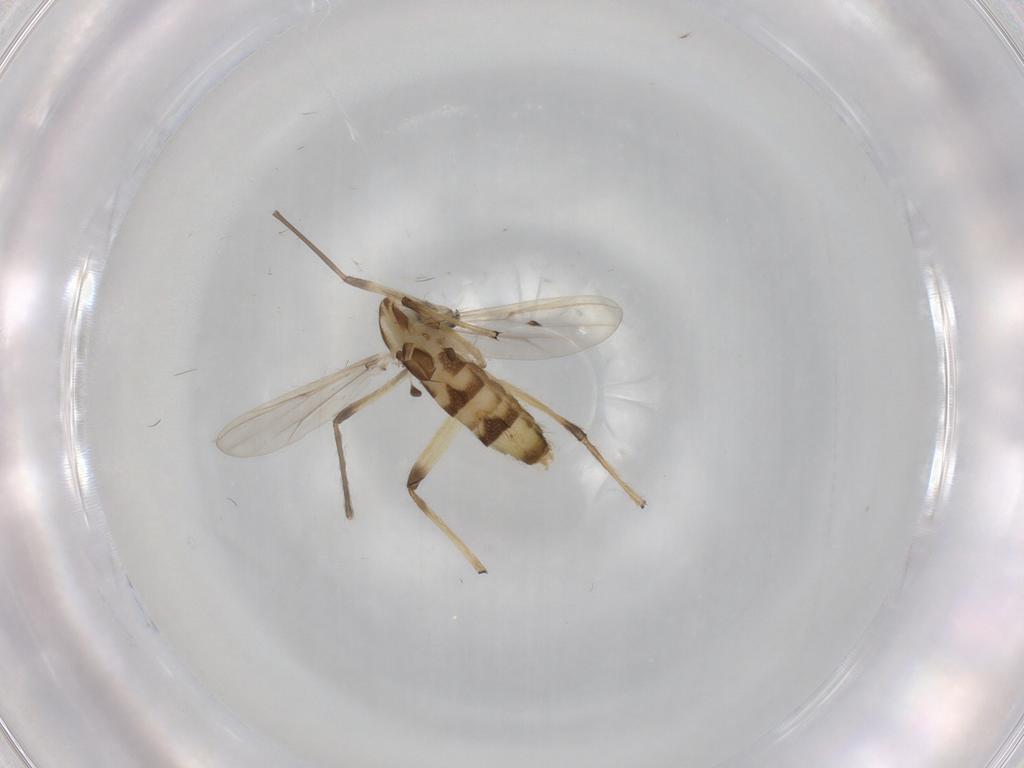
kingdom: Animalia
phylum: Arthropoda
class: Insecta
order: Diptera
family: Chironomidae
